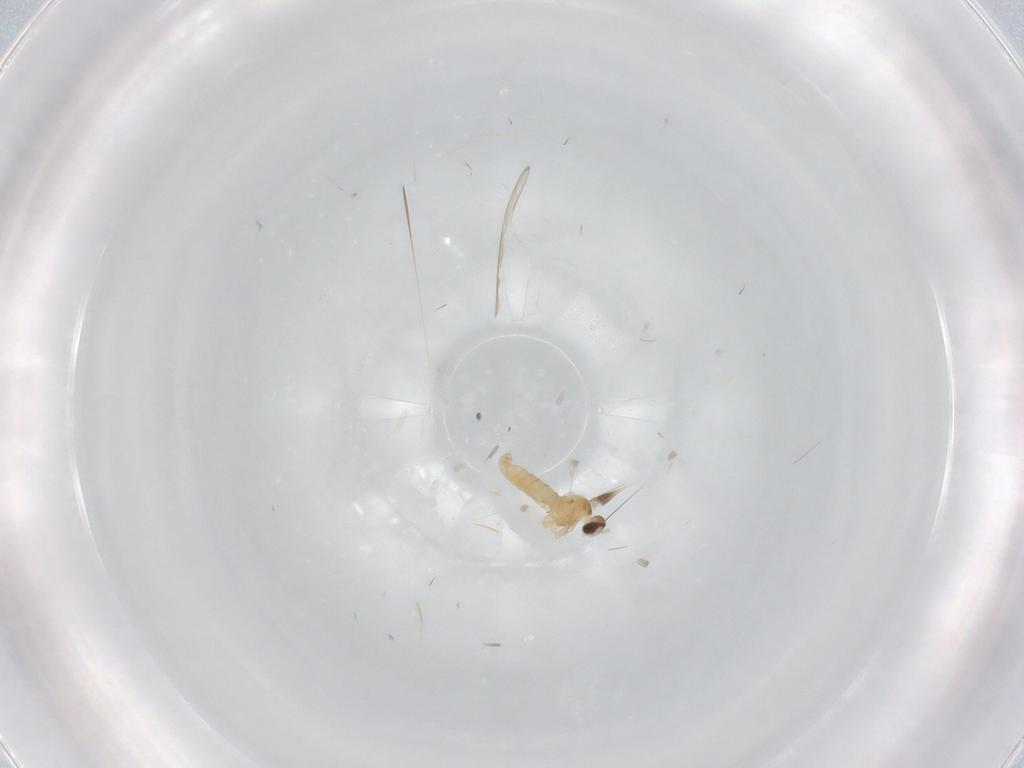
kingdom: Animalia
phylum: Arthropoda
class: Insecta
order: Diptera
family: Cecidomyiidae
